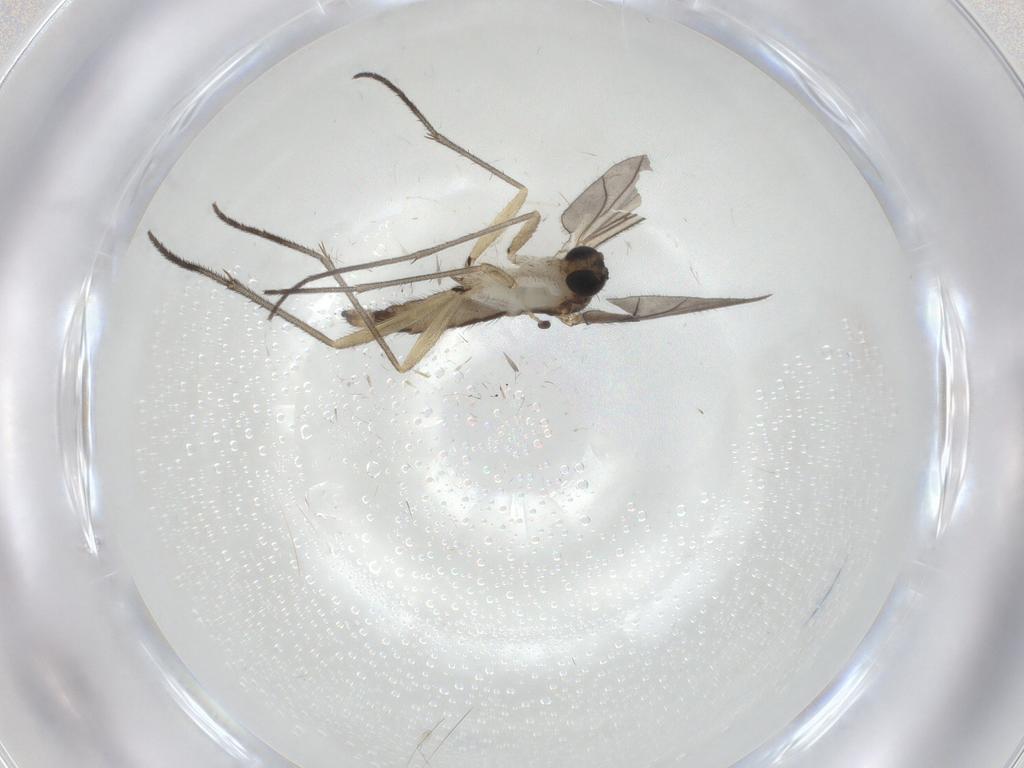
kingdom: Animalia
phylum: Arthropoda
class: Insecta
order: Diptera
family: Sciaridae
